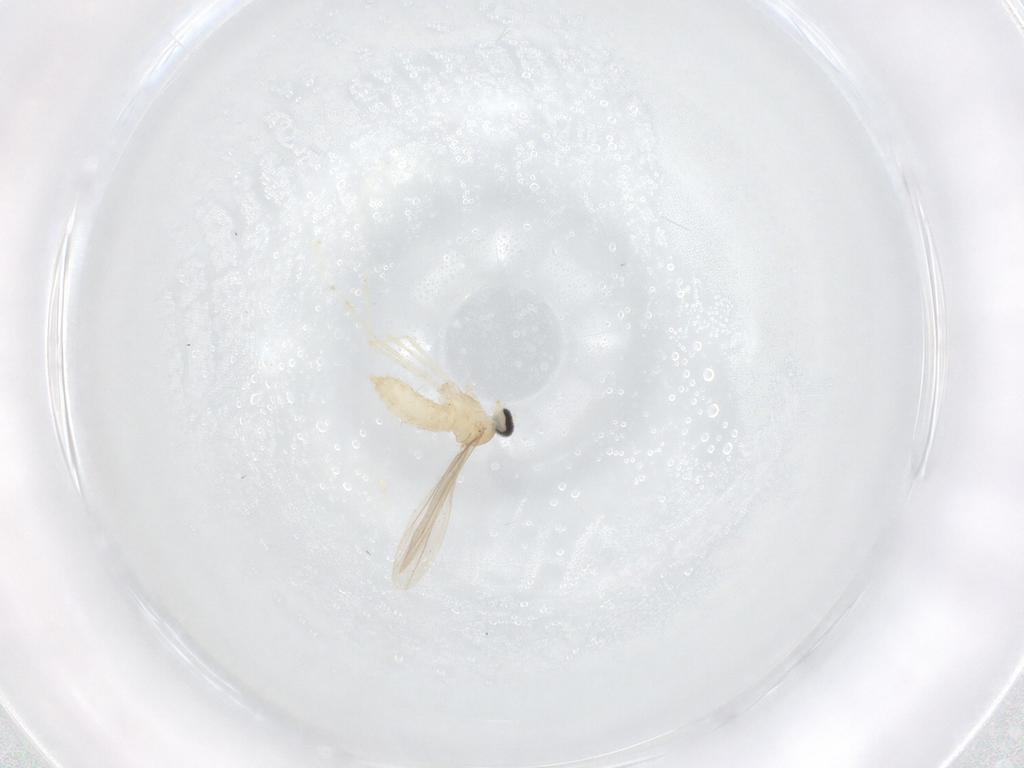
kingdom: Animalia
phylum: Arthropoda
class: Insecta
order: Diptera
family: Cecidomyiidae
